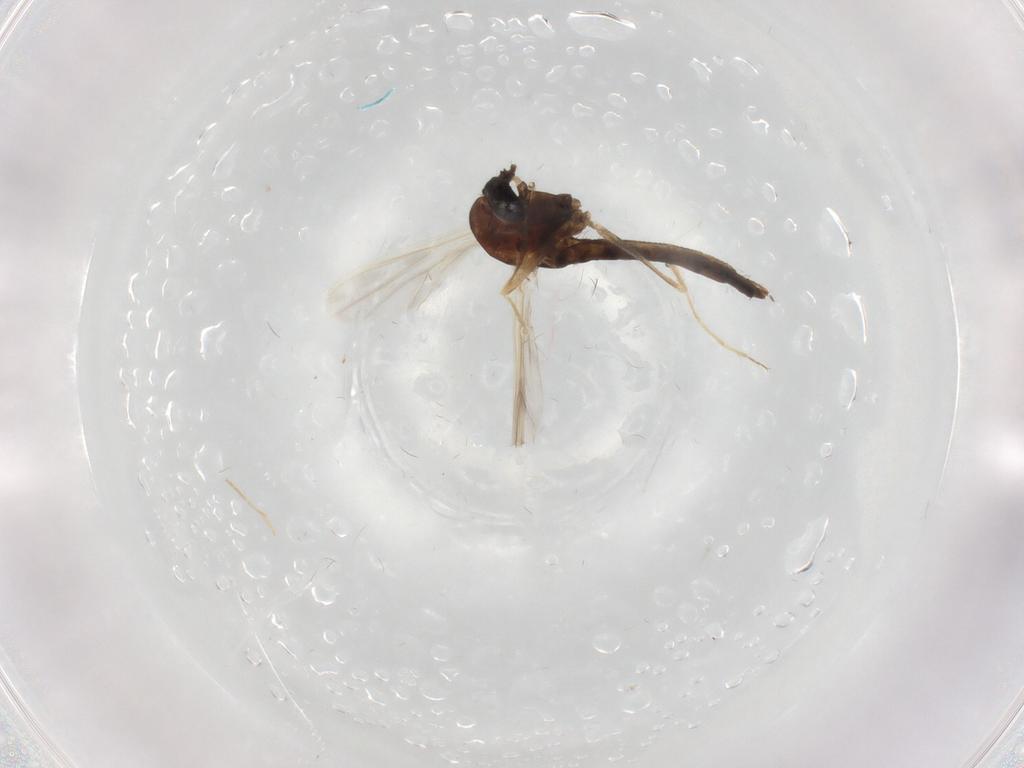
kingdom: Animalia
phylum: Arthropoda
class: Insecta
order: Diptera
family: Chironomidae
